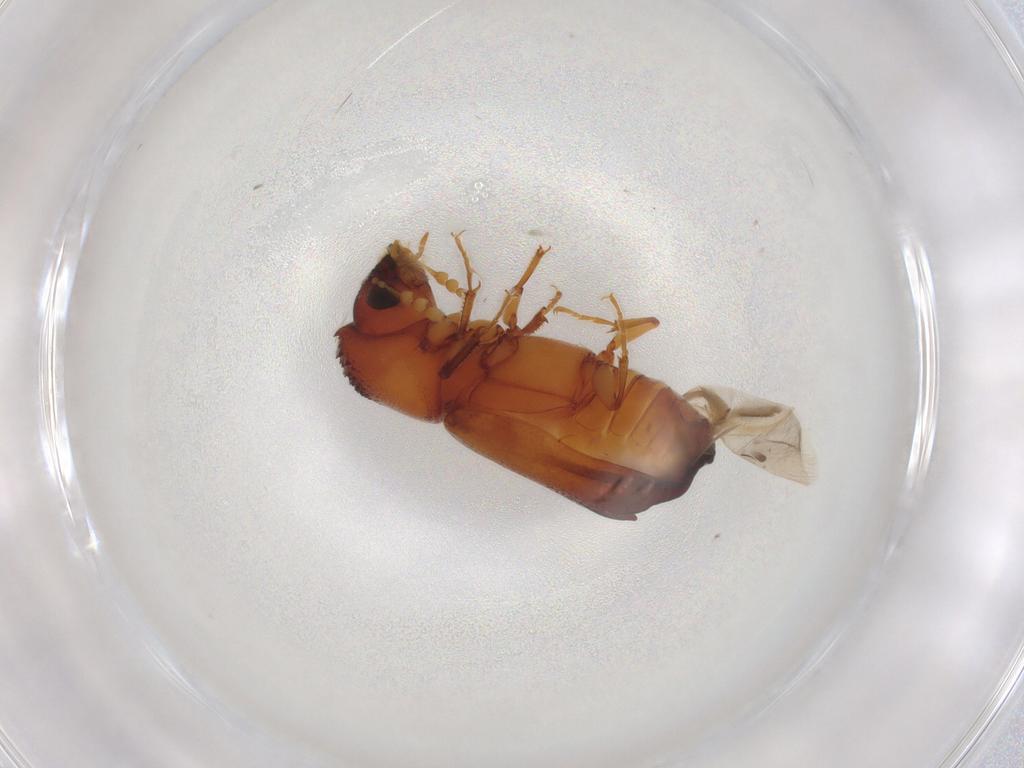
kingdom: Animalia
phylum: Arthropoda
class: Insecta
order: Coleoptera
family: Bostrichidae
